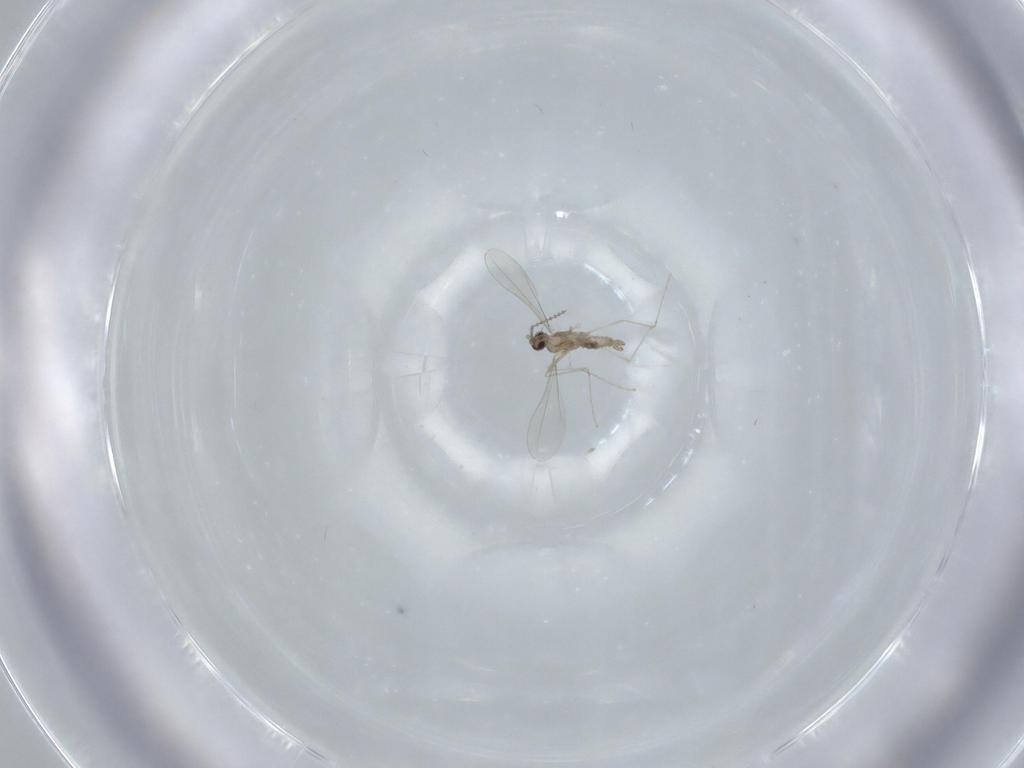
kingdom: Animalia
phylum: Arthropoda
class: Insecta
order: Diptera
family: Cecidomyiidae
